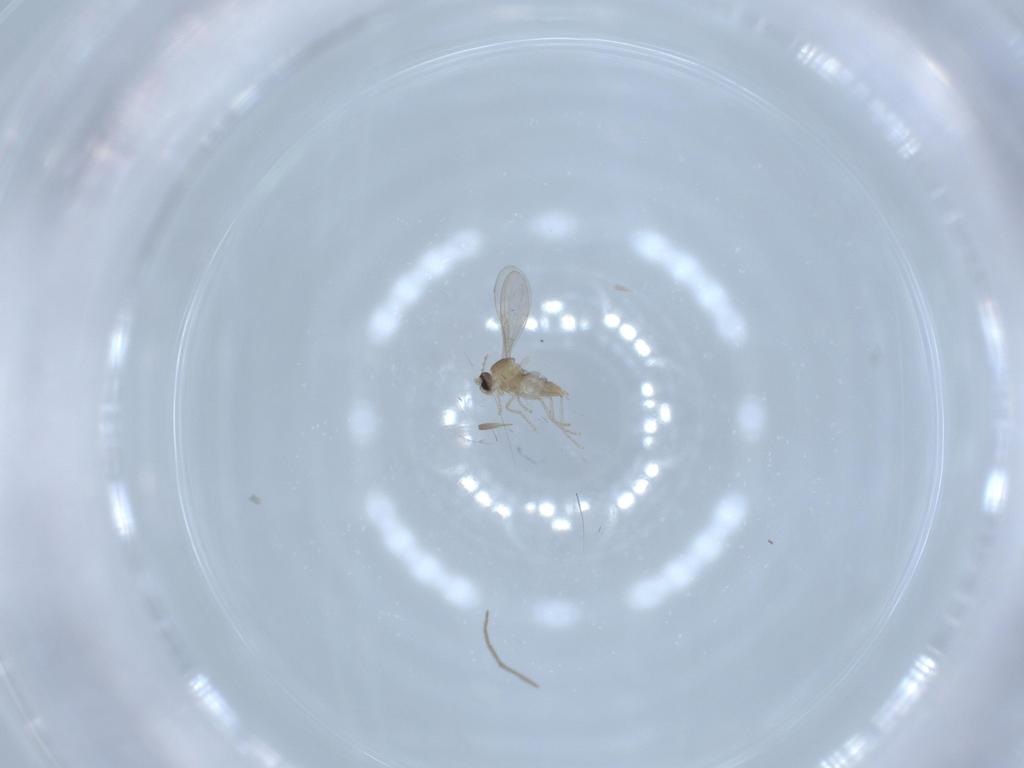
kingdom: Animalia
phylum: Arthropoda
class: Insecta
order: Diptera
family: Cecidomyiidae
